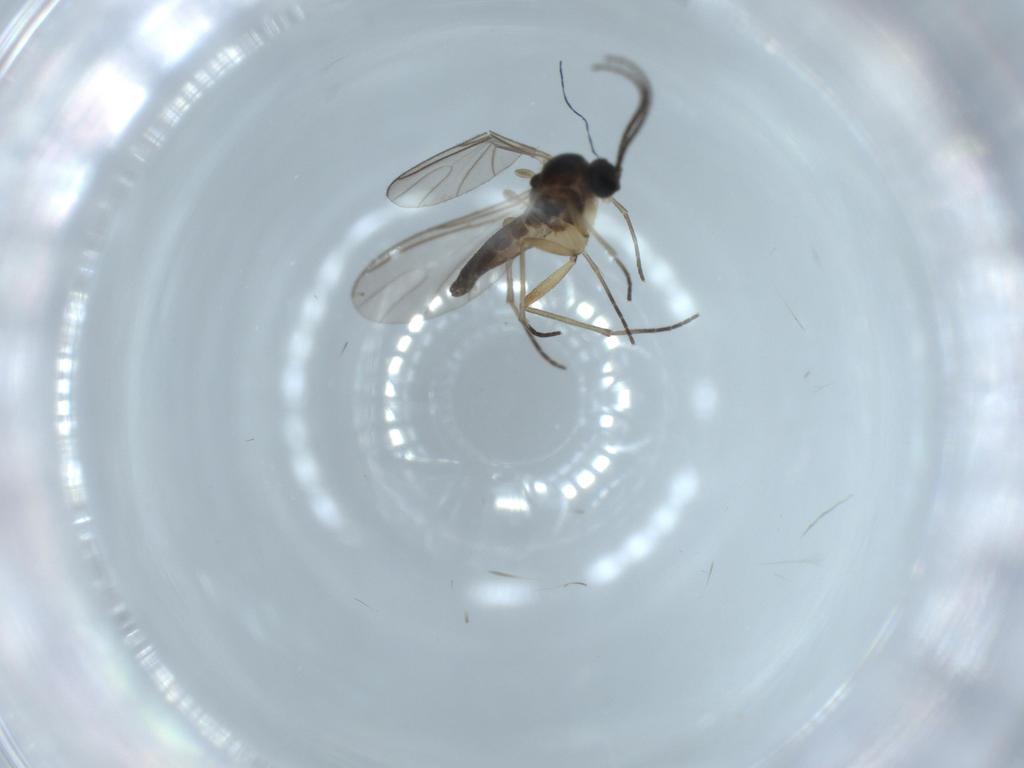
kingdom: Animalia
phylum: Arthropoda
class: Insecta
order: Diptera
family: Sciaridae
